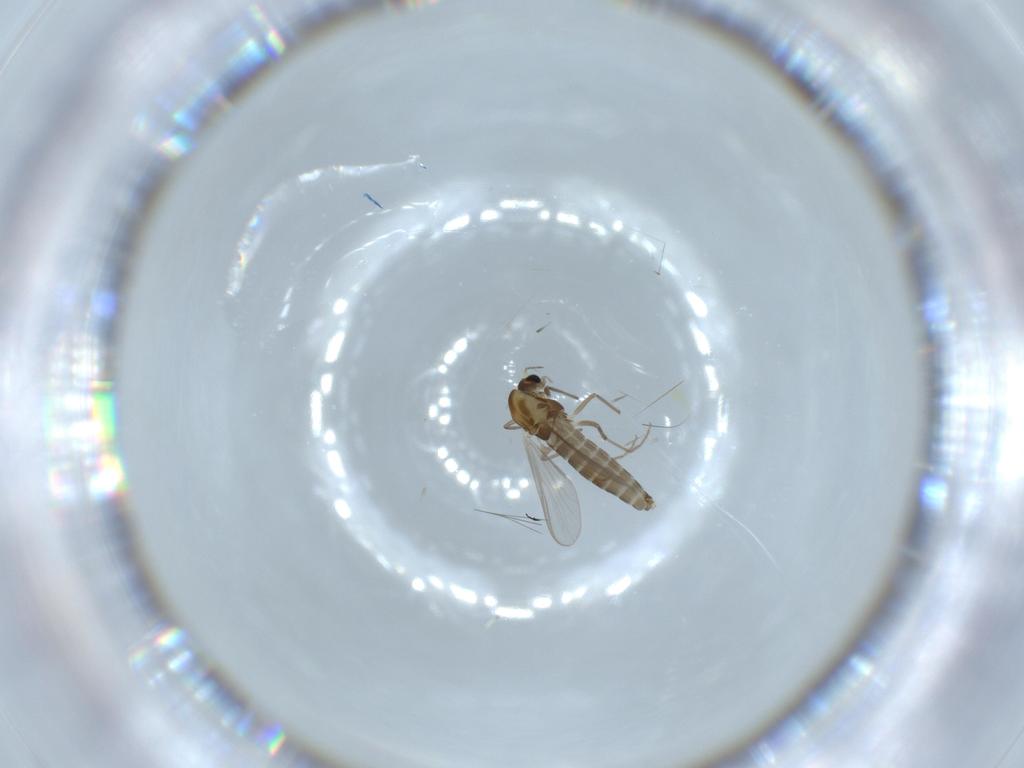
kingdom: Animalia
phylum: Arthropoda
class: Insecta
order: Diptera
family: Chironomidae
